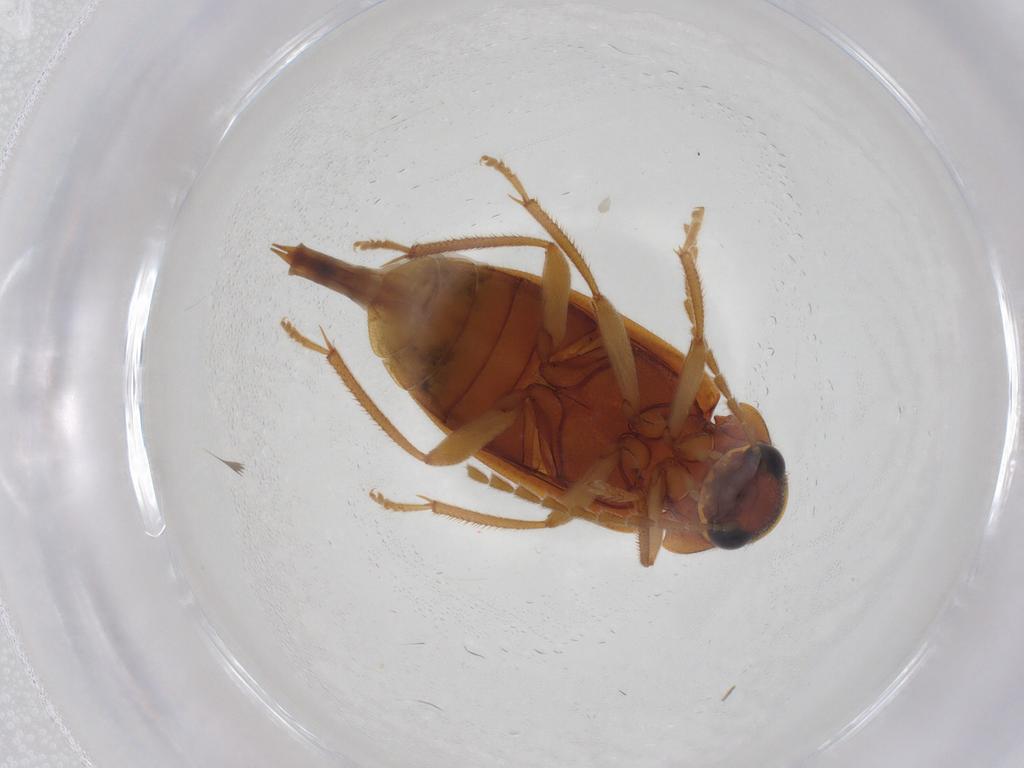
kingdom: Animalia
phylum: Arthropoda
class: Insecta
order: Coleoptera
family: Ptilodactylidae
